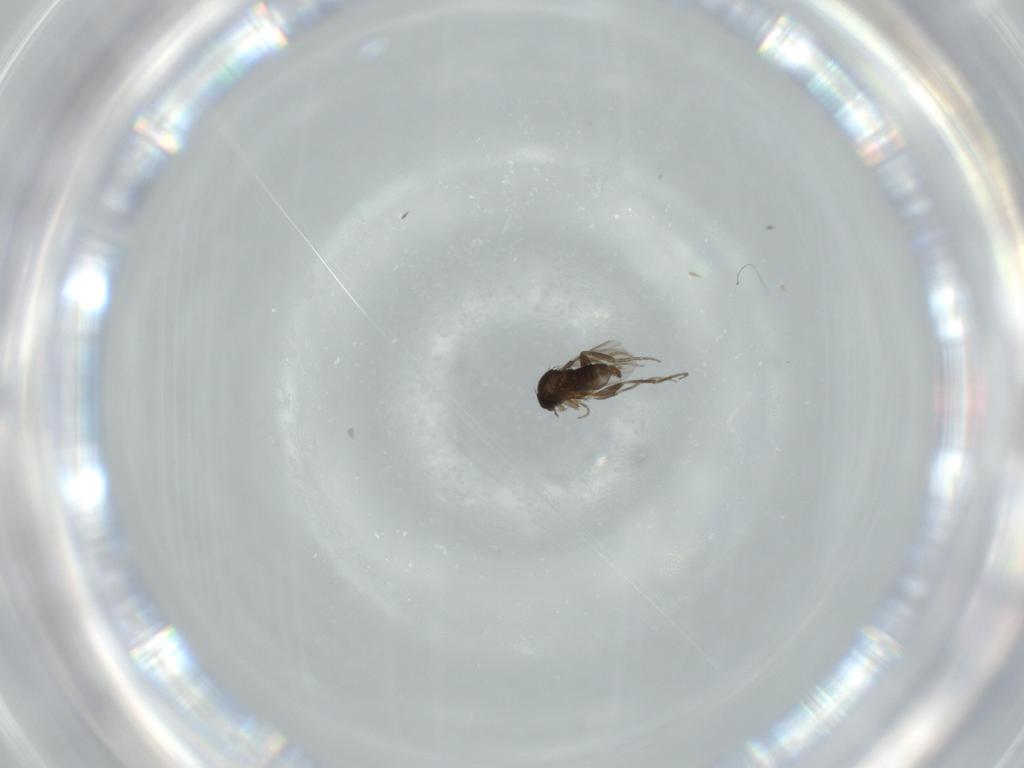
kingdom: Animalia
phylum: Arthropoda
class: Insecta
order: Diptera
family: Phoridae
